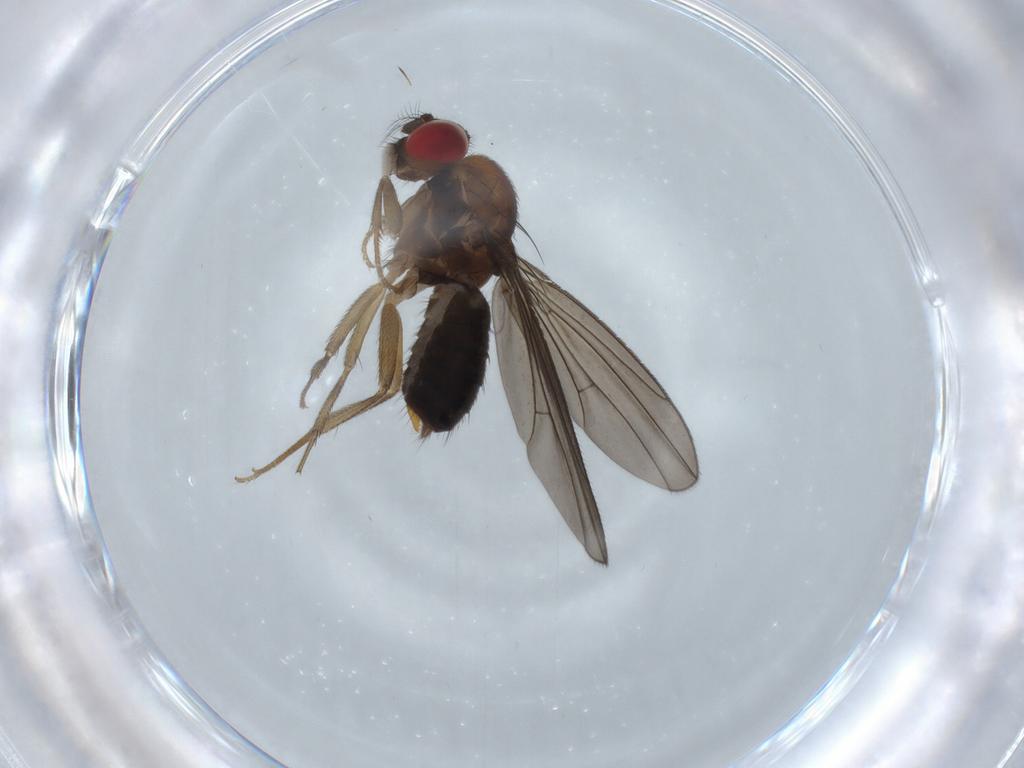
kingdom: Animalia
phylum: Arthropoda
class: Insecta
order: Diptera
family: Drosophilidae
